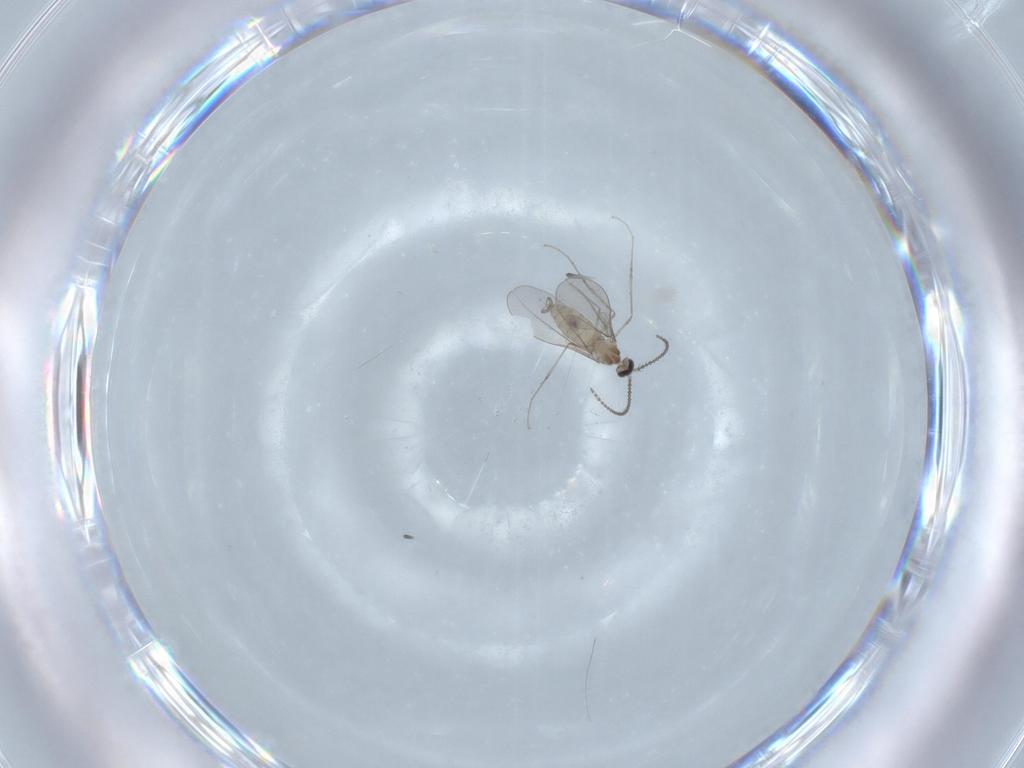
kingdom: Animalia
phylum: Arthropoda
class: Insecta
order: Diptera
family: Cecidomyiidae
